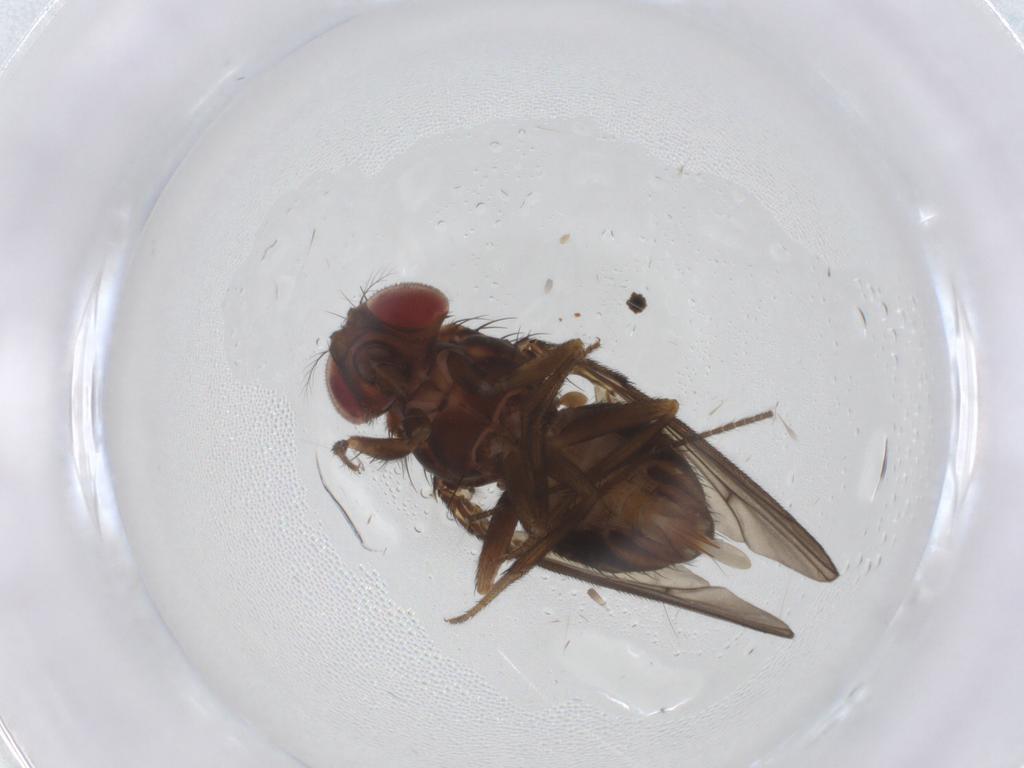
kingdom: Animalia
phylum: Arthropoda
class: Insecta
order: Diptera
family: Drosophilidae
